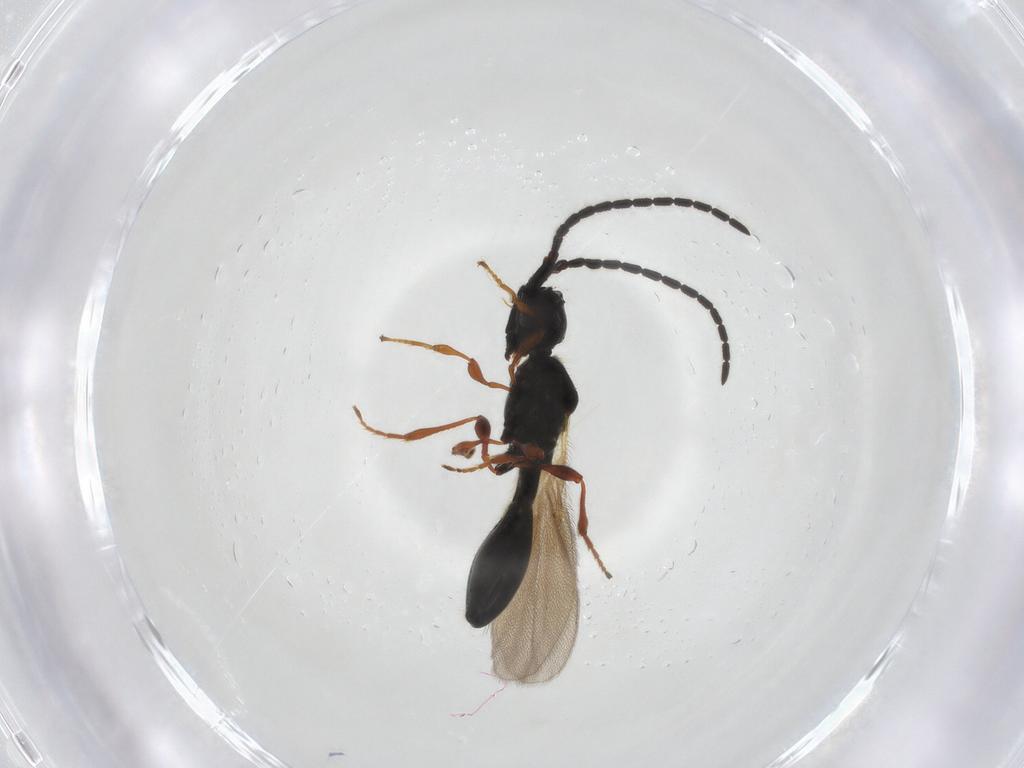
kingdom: Animalia
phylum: Arthropoda
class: Insecta
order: Hymenoptera
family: Diapriidae
